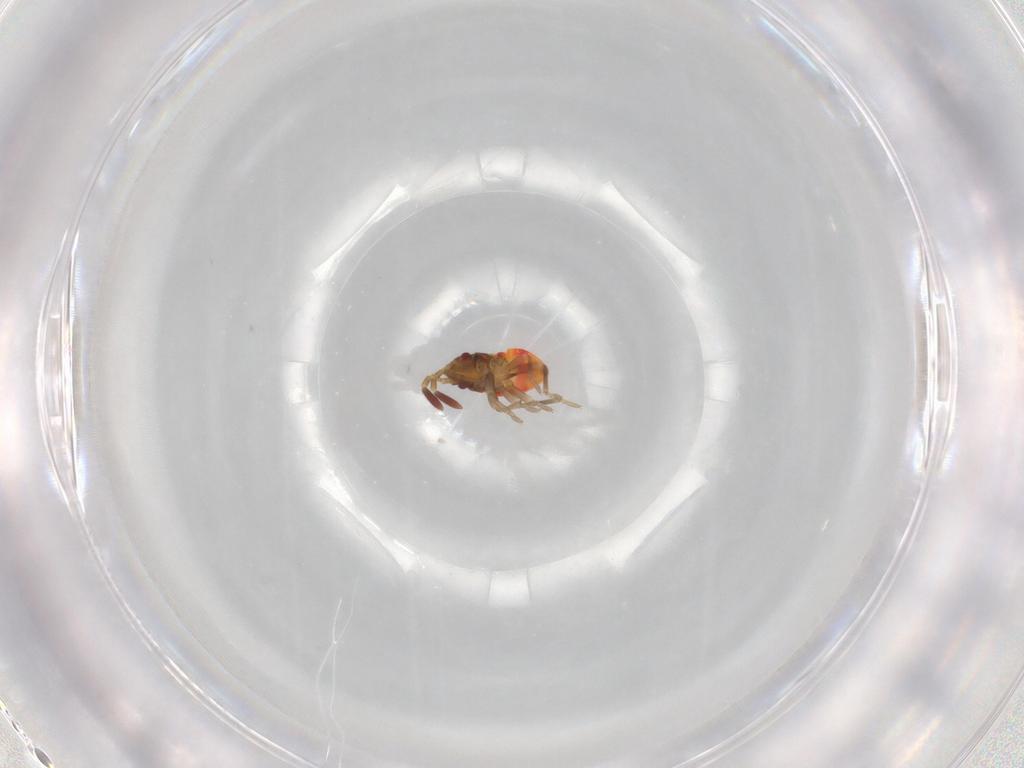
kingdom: Animalia
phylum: Arthropoda
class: Insecta
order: Hemiptera
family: Rhyparochromidae
